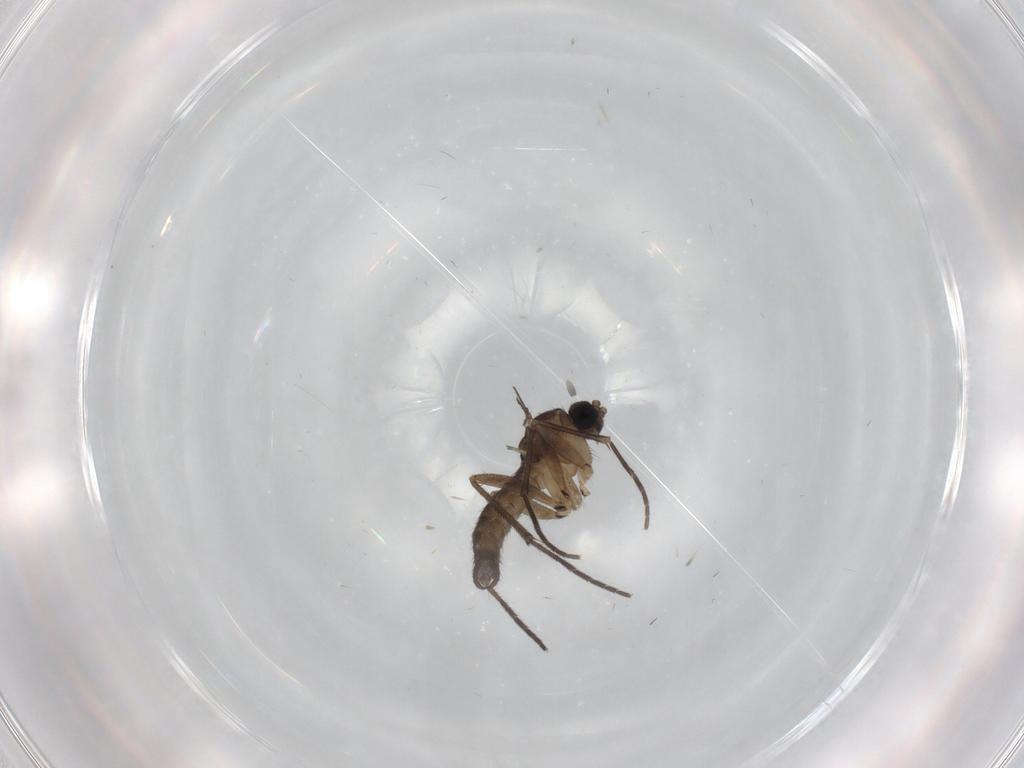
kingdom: Animalia
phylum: Arthropoda
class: Insecta
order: Diptera
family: Sciaridae
